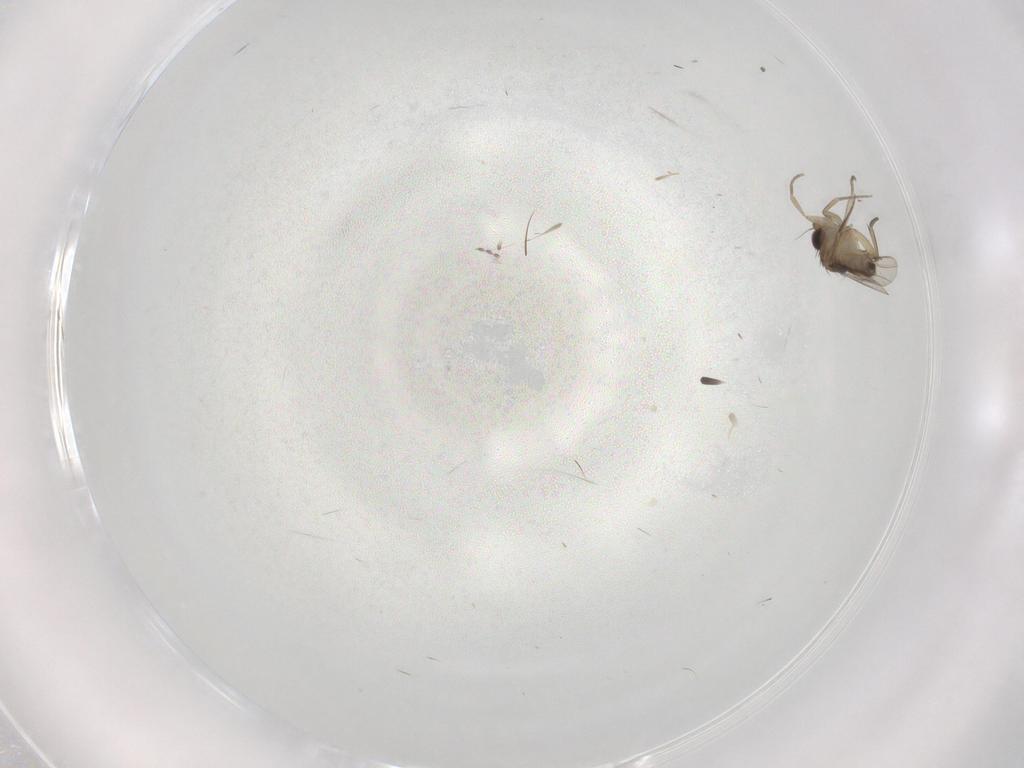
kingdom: Animalia
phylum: Arthropoda
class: Insecta
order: Diptera
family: Phoridae
